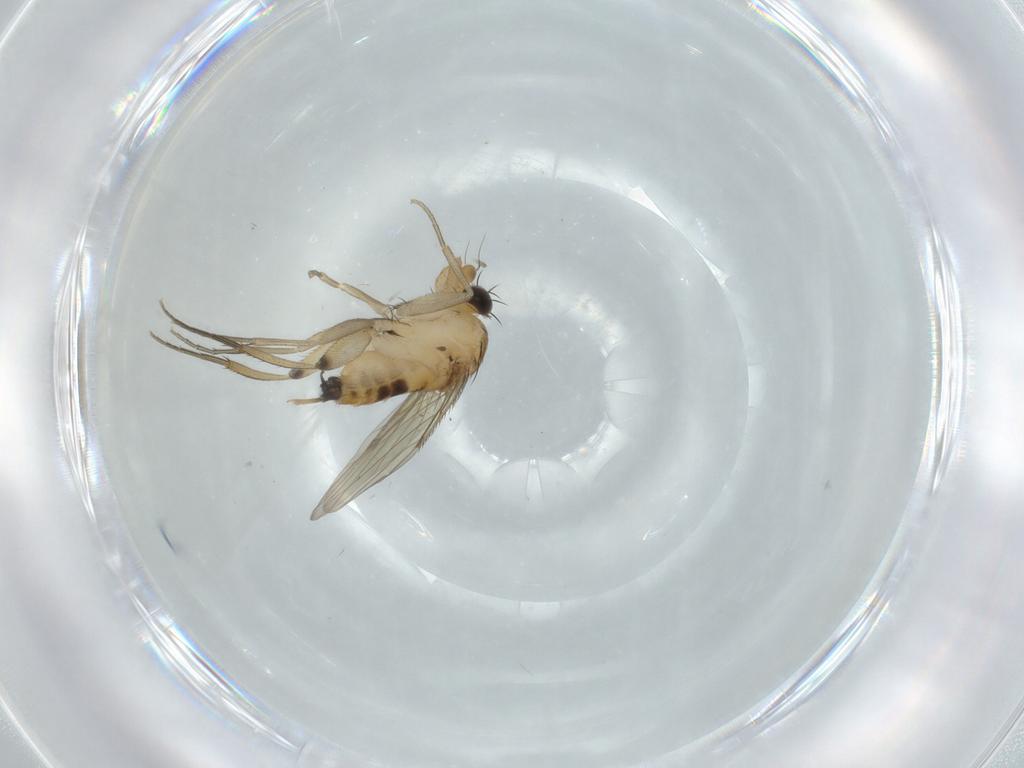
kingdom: Animalia
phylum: Arthropoda
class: Insecta
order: Diptera
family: Phoridae
